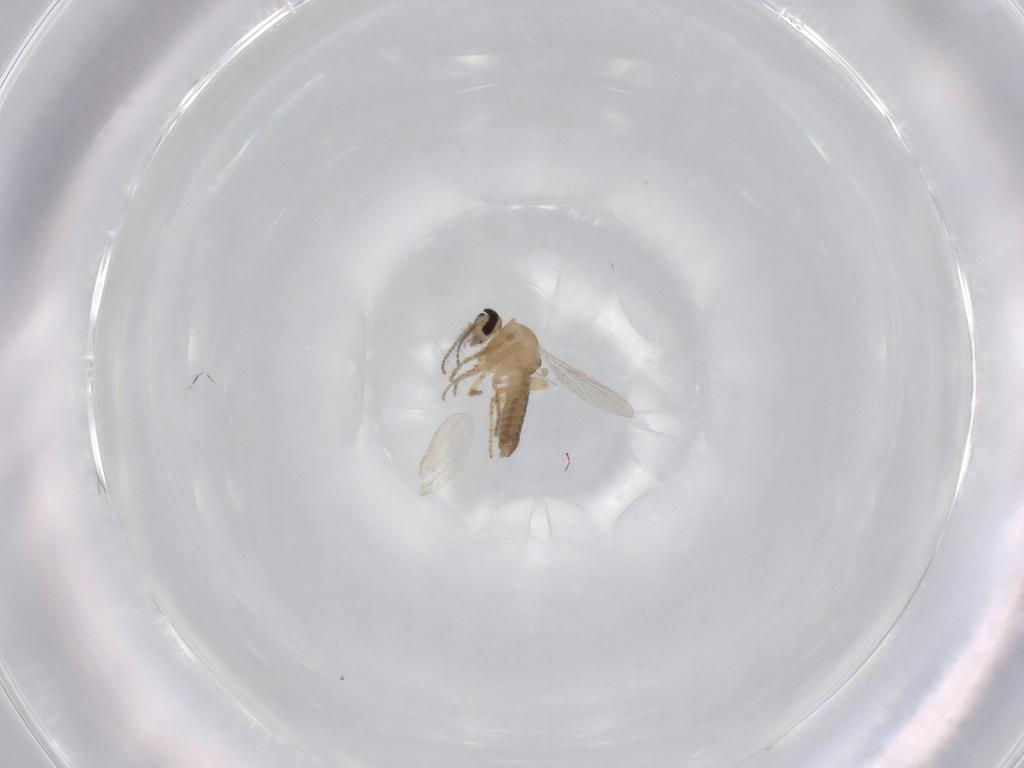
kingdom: Animalia
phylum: Arthropoda
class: Insecta
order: Diptera
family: Ceratopogonidae
